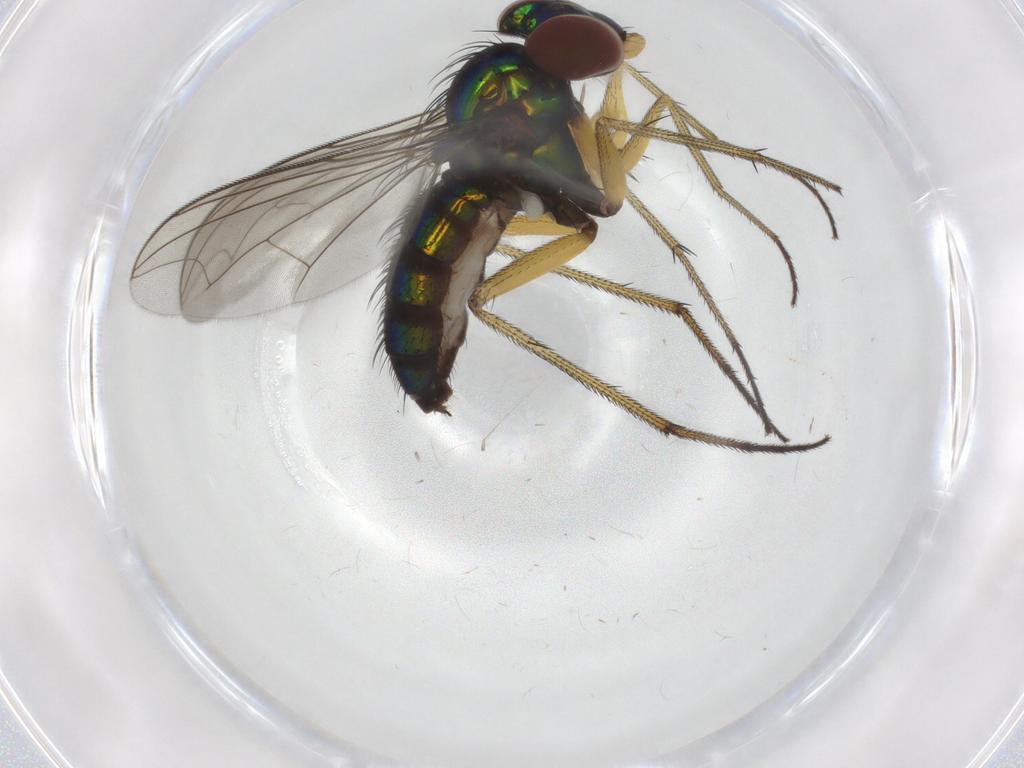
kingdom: Animalia
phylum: Arthropoda
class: Insecta
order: Diptera
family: Dolichopodidae
